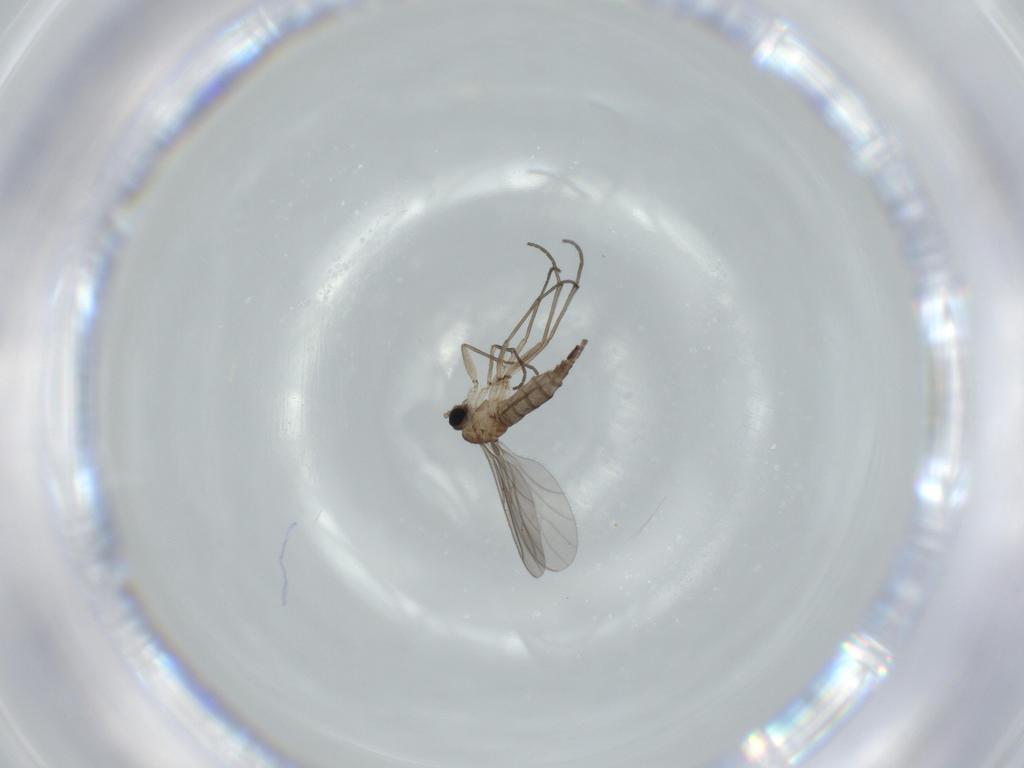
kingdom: Animalia
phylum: Arthropoda
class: Insecta
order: Diptera
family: Sciaridae
